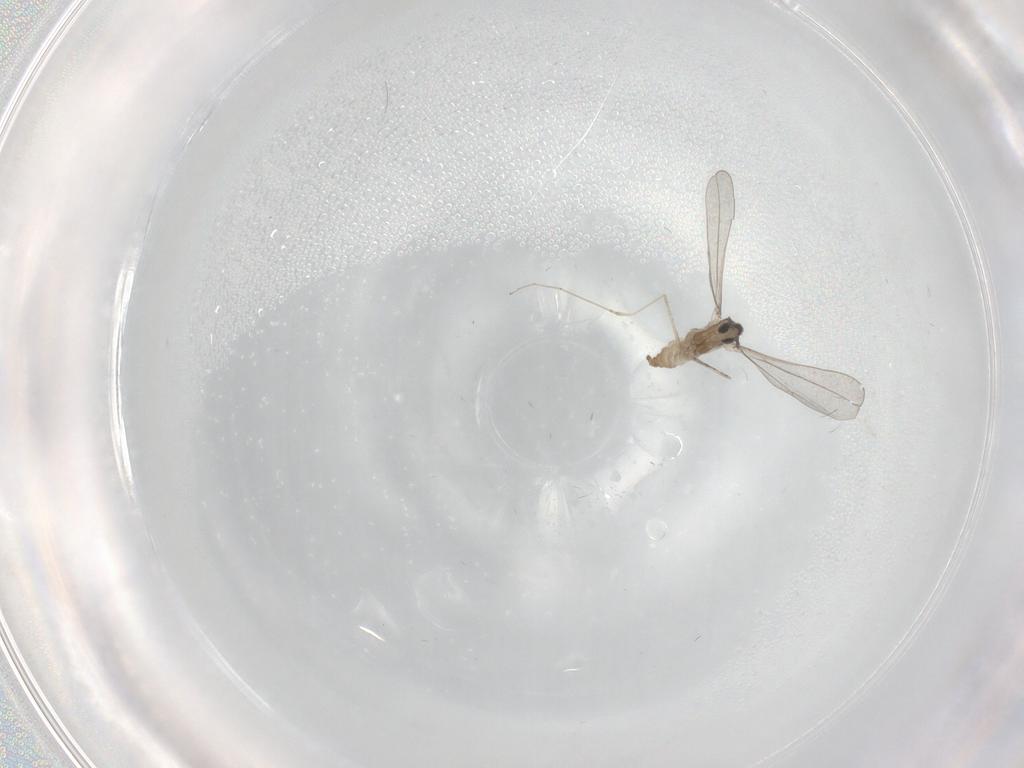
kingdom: Animalia
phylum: Arthropoda
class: Insecta
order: Diptera
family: Cecidomyiidae
